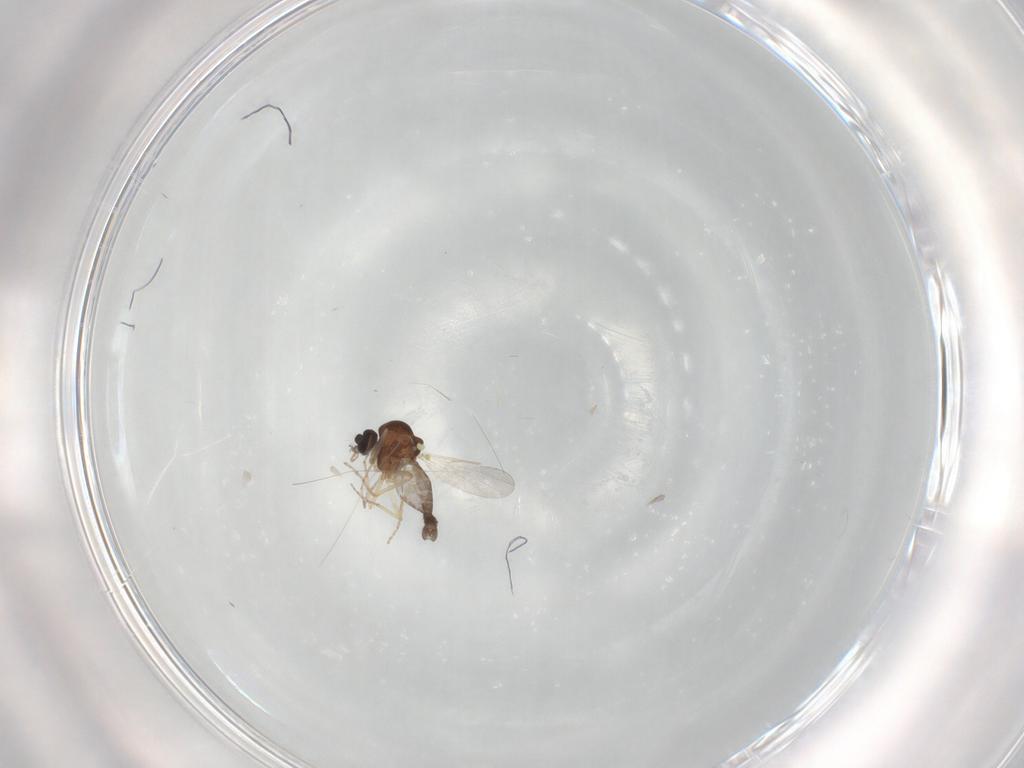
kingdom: Animalia
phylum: Arthropoda
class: Insecta
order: Diptera
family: Ceratopogonidae
